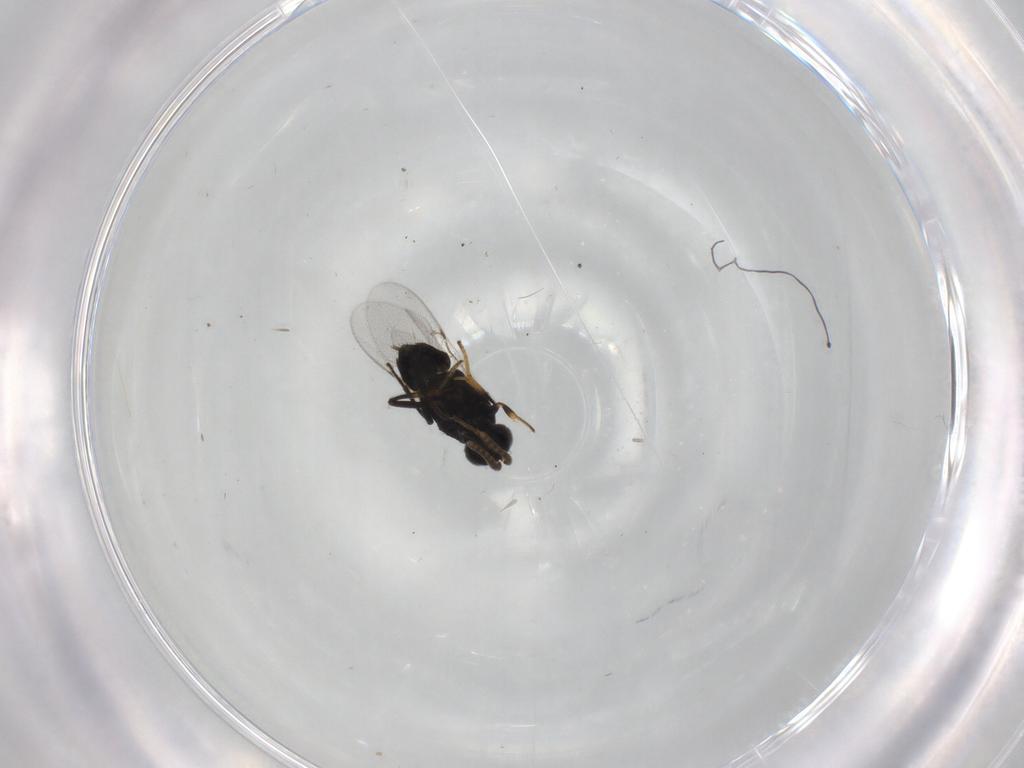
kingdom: Animalia
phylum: Arthropoda
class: Insecta
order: Hymenoptera
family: Encyrtidae
